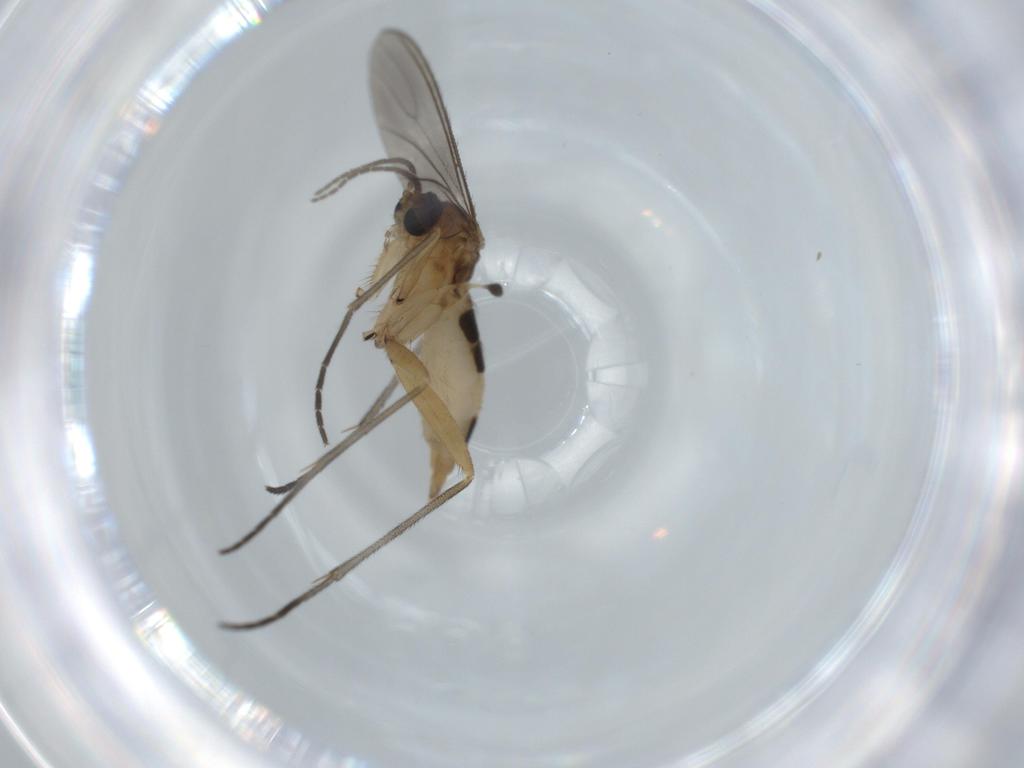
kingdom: Animalia
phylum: Arthropoda
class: Insecta
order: Diptera
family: Sciaridae
